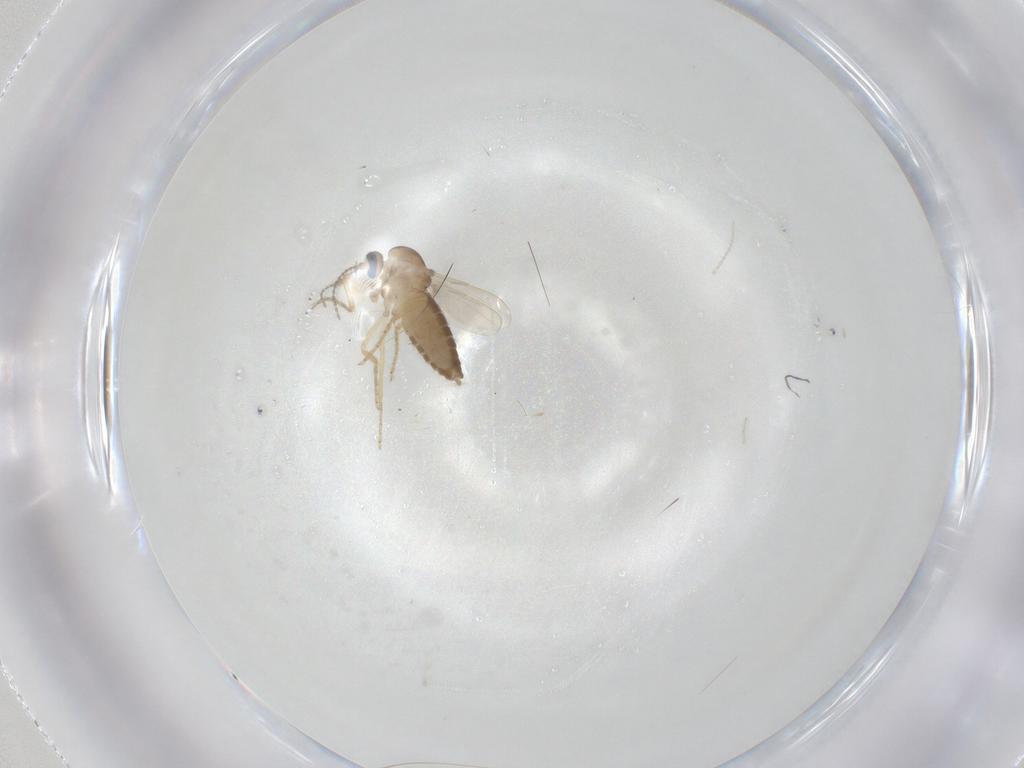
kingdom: Animalia
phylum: Arthropoda
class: Insecta
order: Diptera
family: Ceratopogonidae
